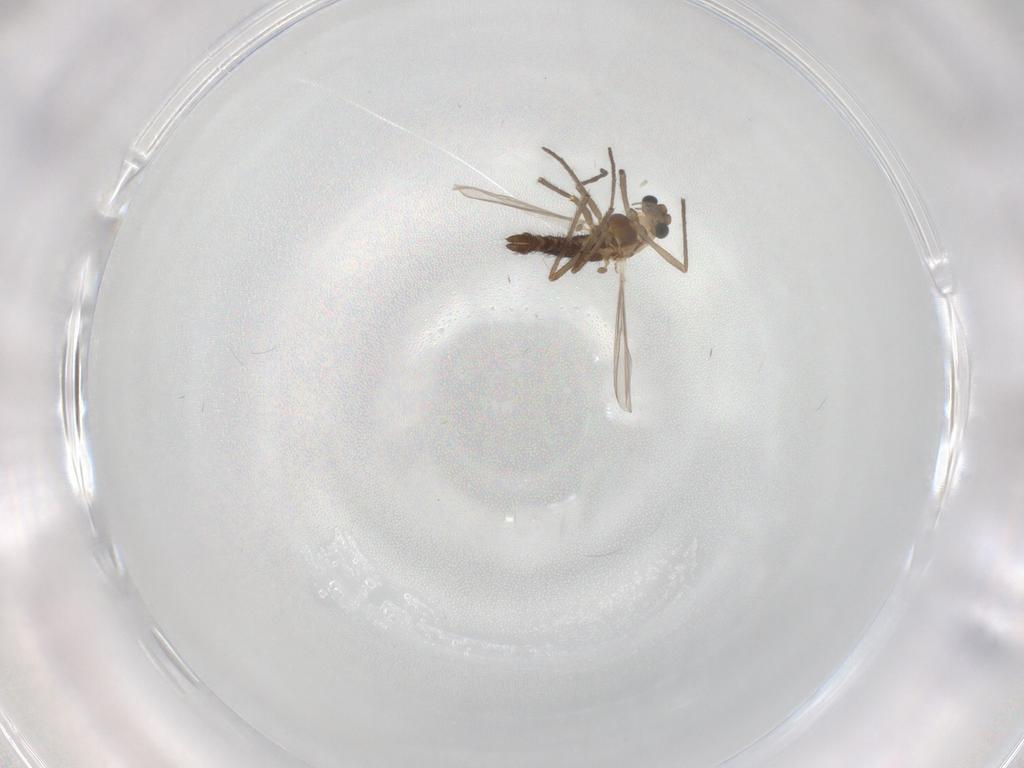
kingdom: Animalia
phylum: Arthropoda
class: Insecta
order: Diptera
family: Chironomidae
